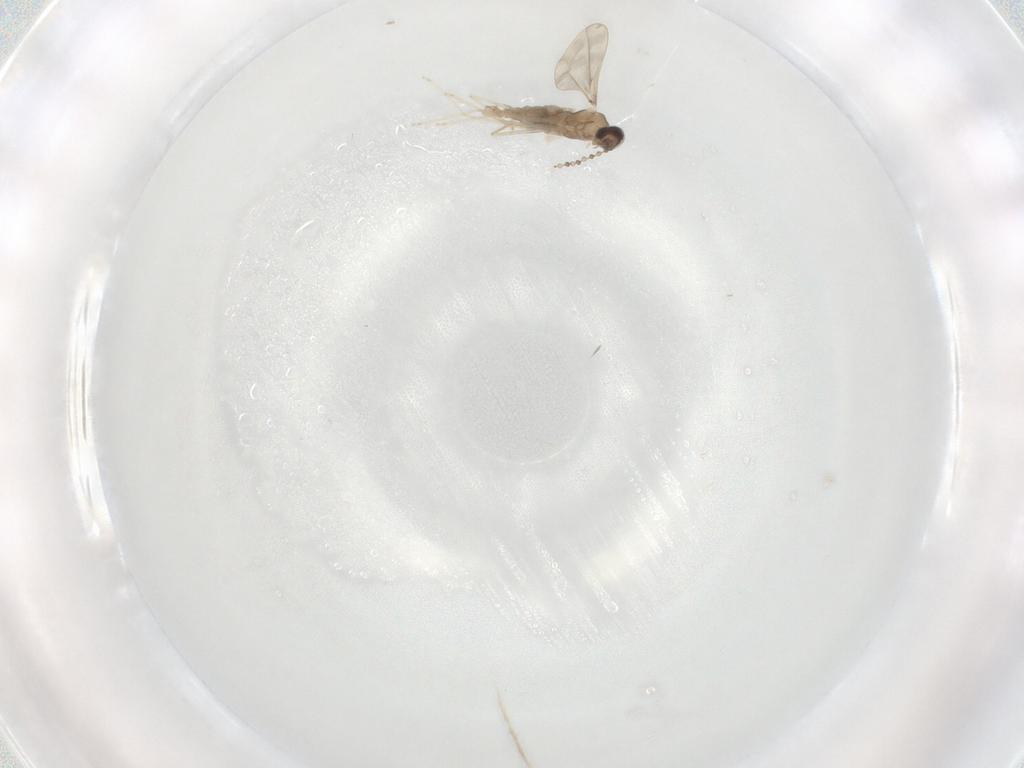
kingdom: Animalia
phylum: Arthropoda
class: Insecta
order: Diptera
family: Cecidomyiidae
